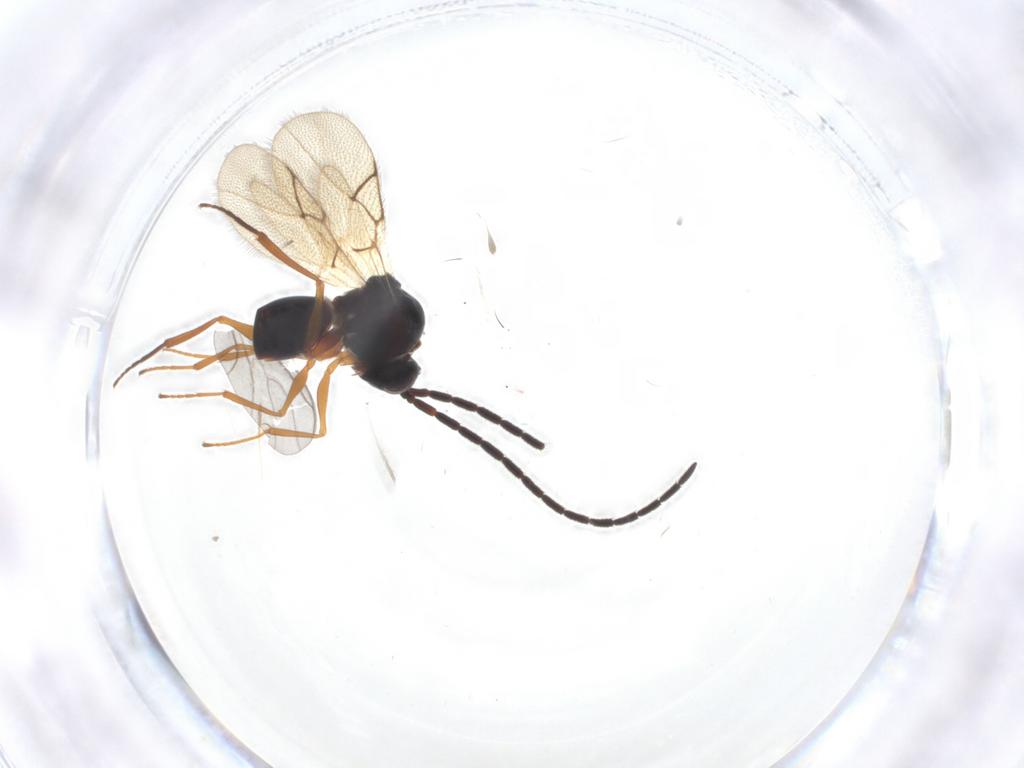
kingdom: Animalia
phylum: Arthropoda
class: Insecta
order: Hymenoptera
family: Figitidae
